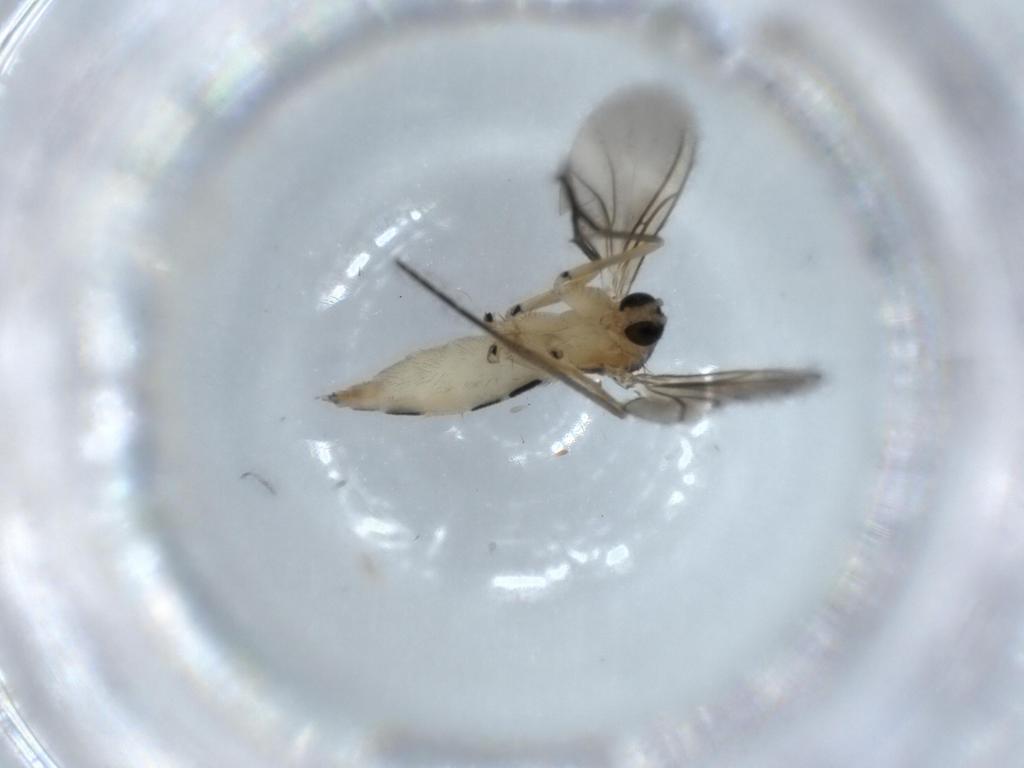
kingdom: Animalia
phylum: Arthropoda
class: Insecta
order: Diptera
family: Sciaridae
